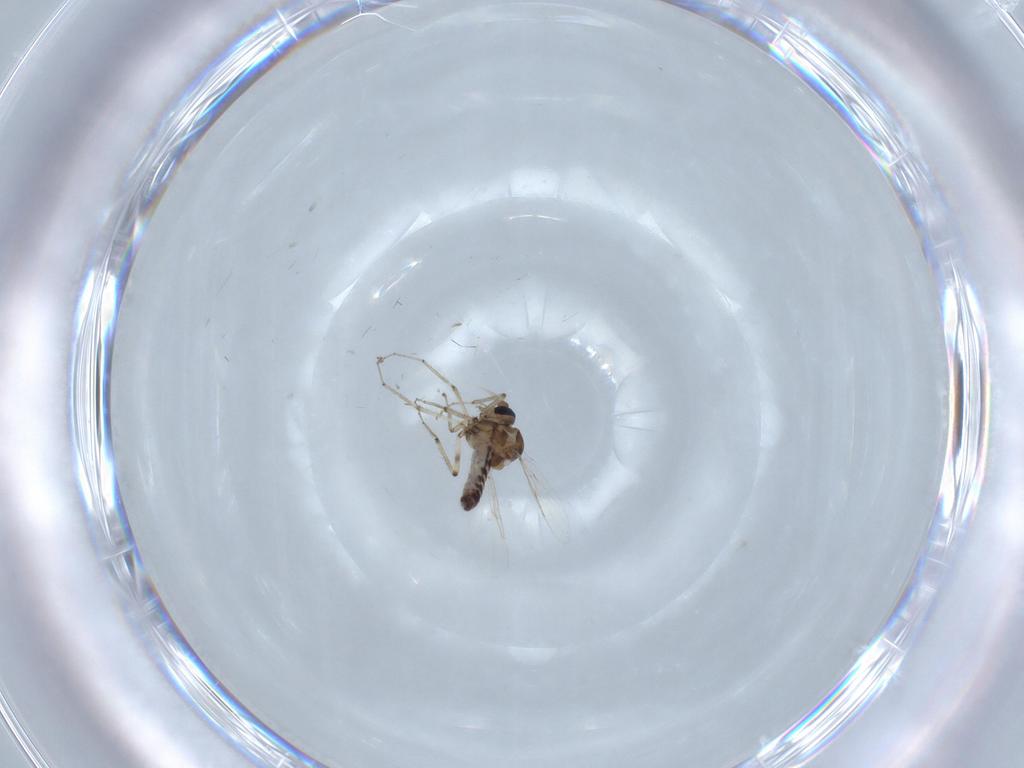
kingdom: Animalia
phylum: Arthropoda
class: Insecta
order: Diptera
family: Ceratopogonidae
